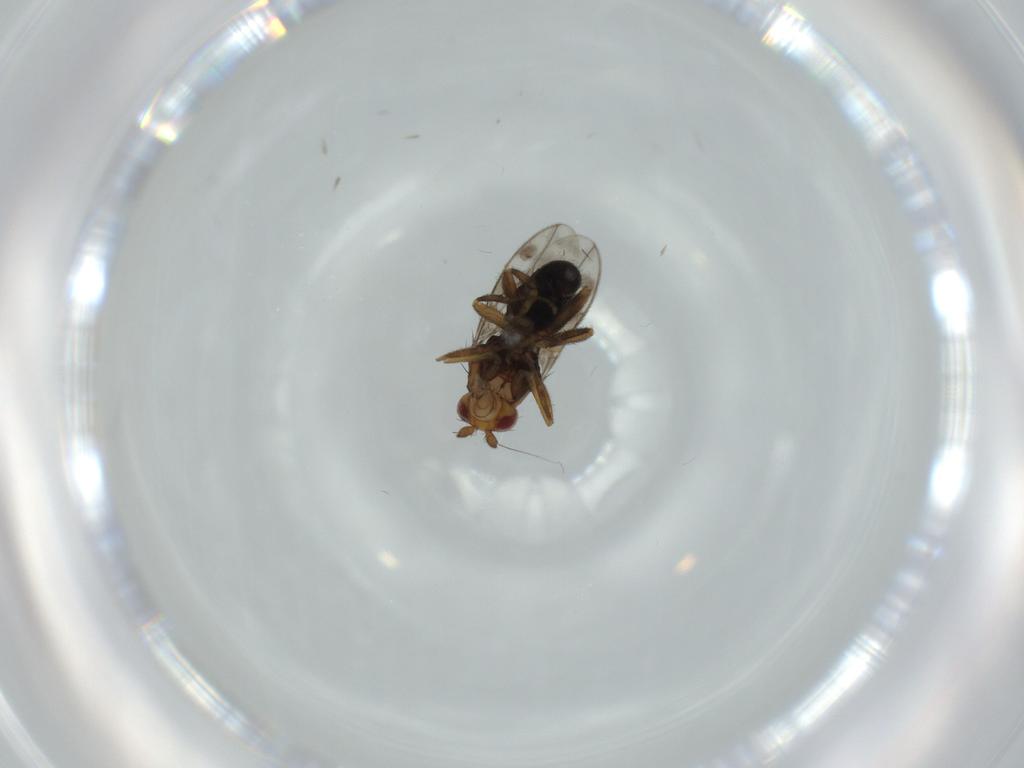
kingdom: Animalia
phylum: Arthropoda
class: Insecta
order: Diptera
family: Sphaeroceridae
